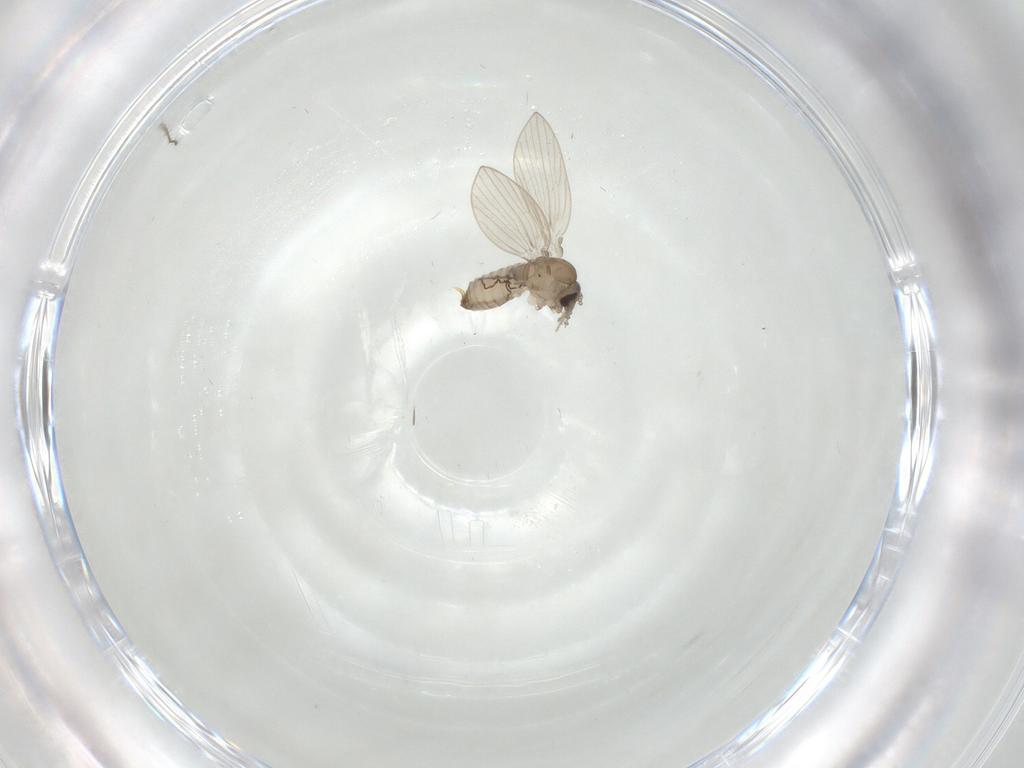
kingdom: Animalia
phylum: Arthropoda
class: Insecta
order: Diptera
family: Psychodidae
